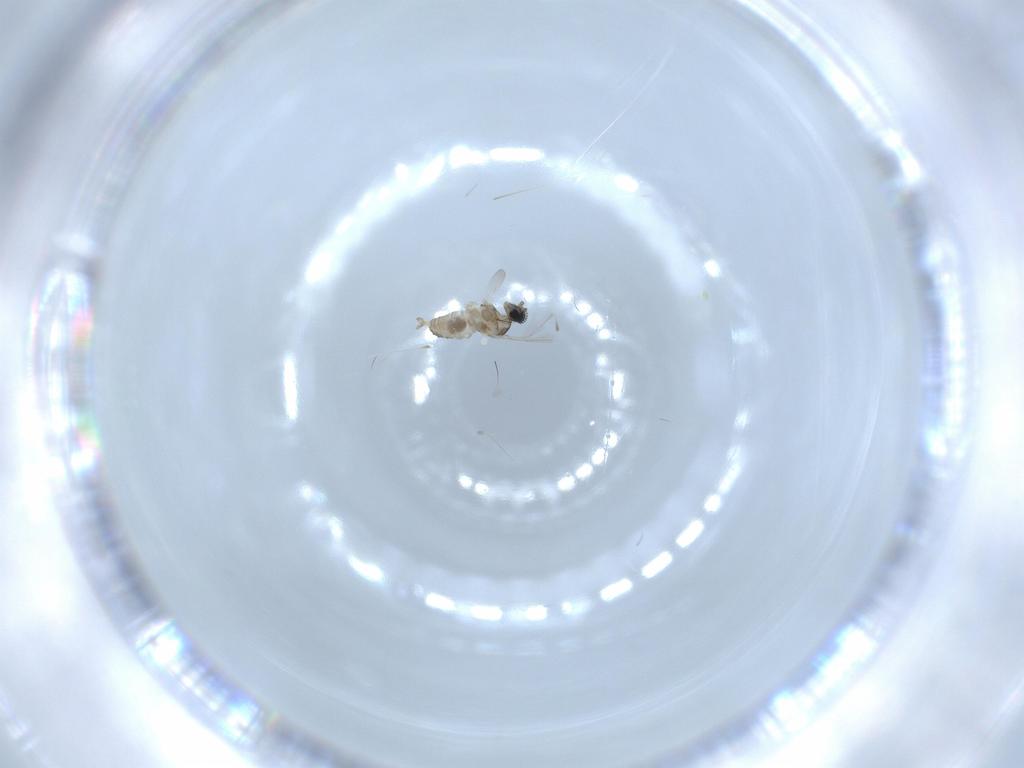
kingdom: Animalia
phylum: Arthropoda
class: Insecta
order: Diptera
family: Cecidomyiidae
